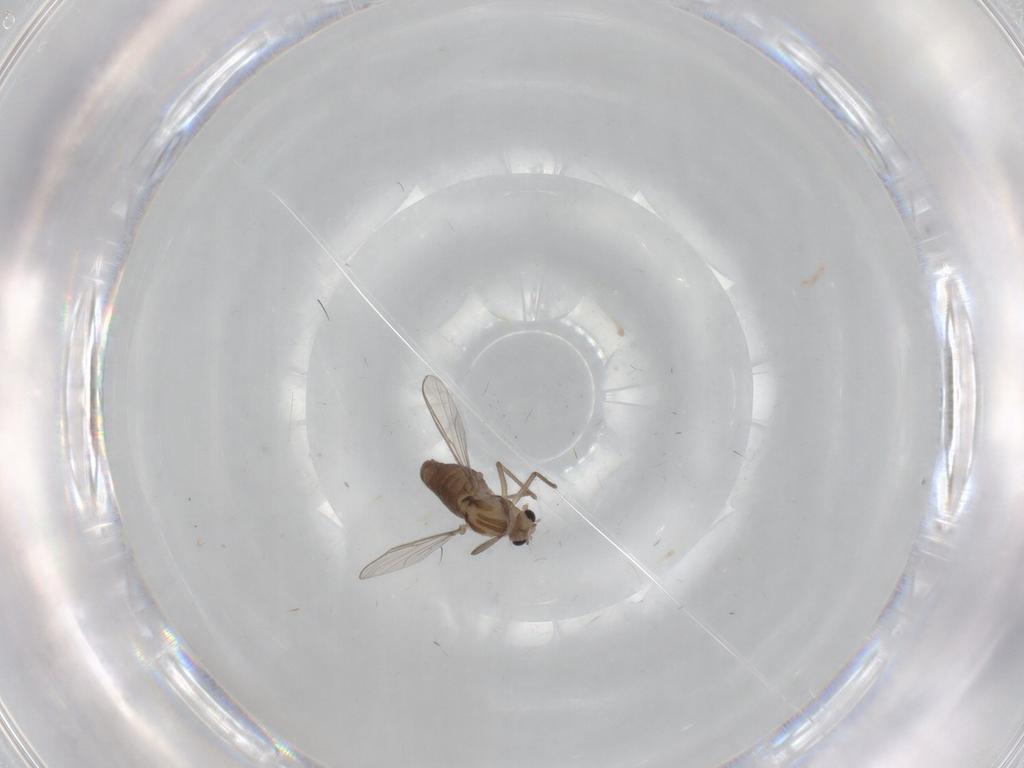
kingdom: Animalia
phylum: Arthropoda
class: Insecta
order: Diptera
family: Chironomidae
